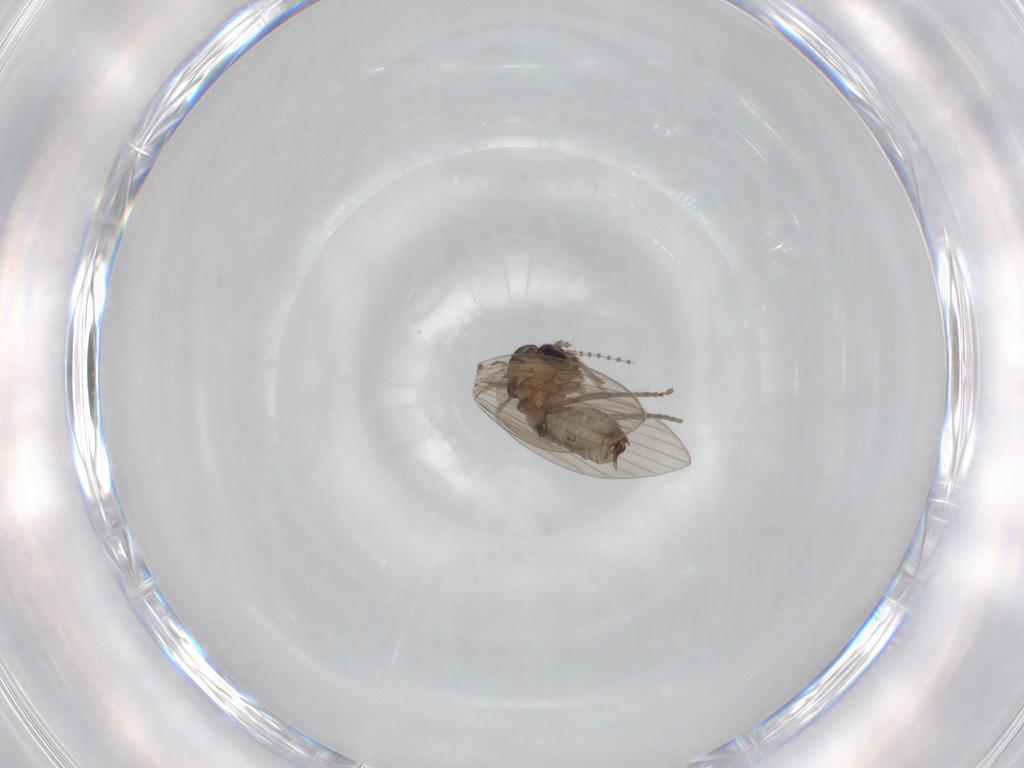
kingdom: Animalia
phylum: Arthropoda
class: Insecta
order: Diptera
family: Psychodidae
